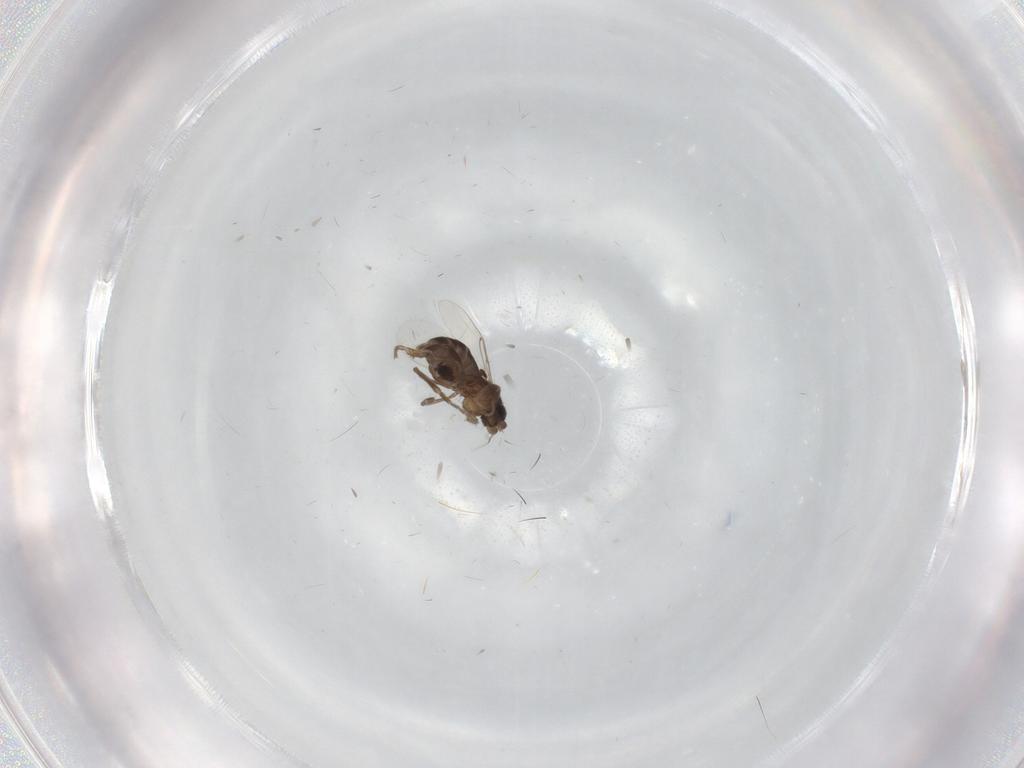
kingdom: Animalia
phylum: Arthropoda
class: Insecta
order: Diptera
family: Phoridae
